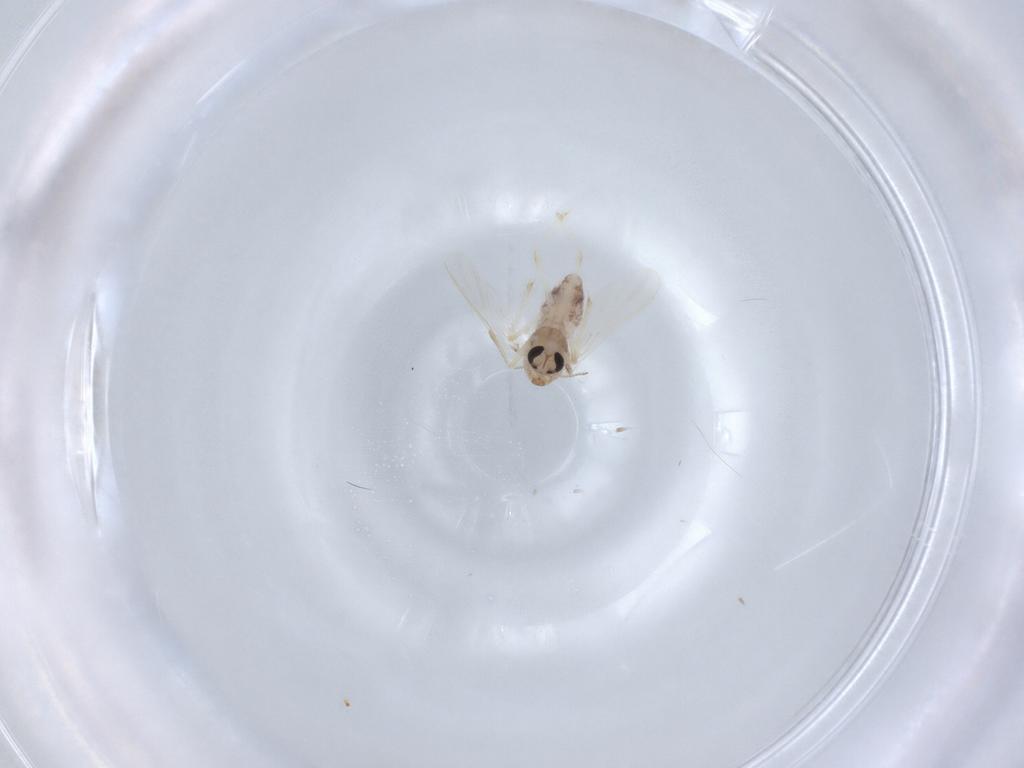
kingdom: Animalia
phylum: Arthropoda
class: Insecta
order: Diptera
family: Chironomidae
